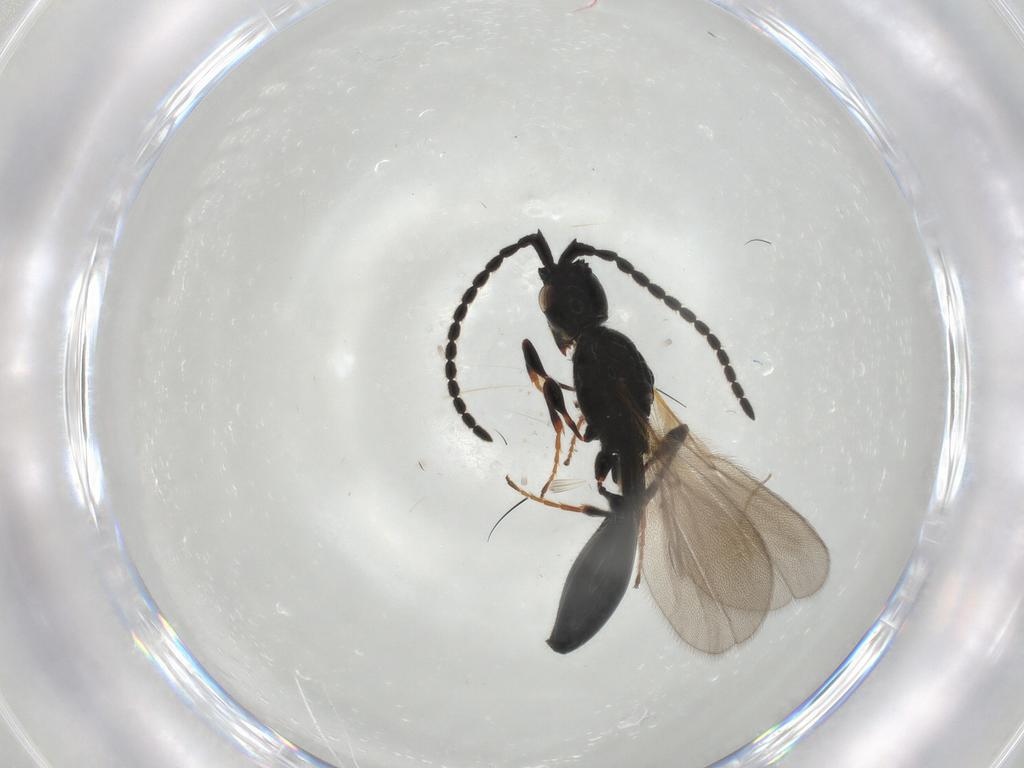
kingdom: Animalia
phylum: Arthropoda
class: Insecta
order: Hymenoptera
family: Diapriidae
